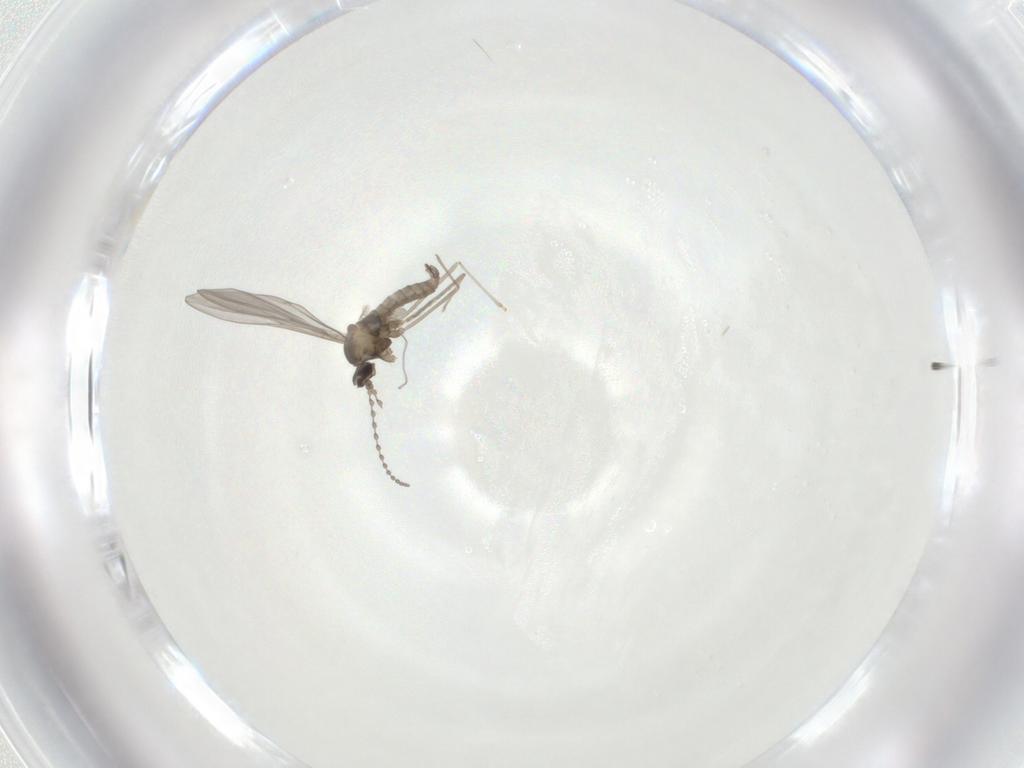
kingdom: Animalia
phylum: Arthropoda
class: Insecta
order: Diptera
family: Cecidomyiidae
